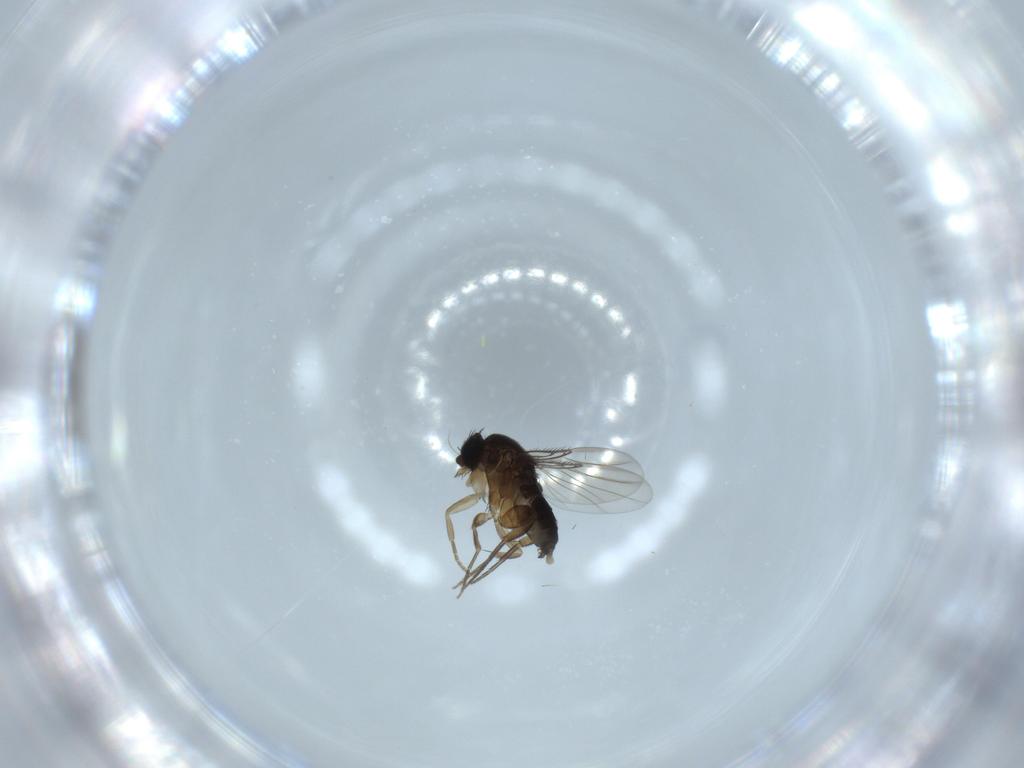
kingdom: Animalia
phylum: Arthropoda
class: Insecta
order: Diptera
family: Phoridae
